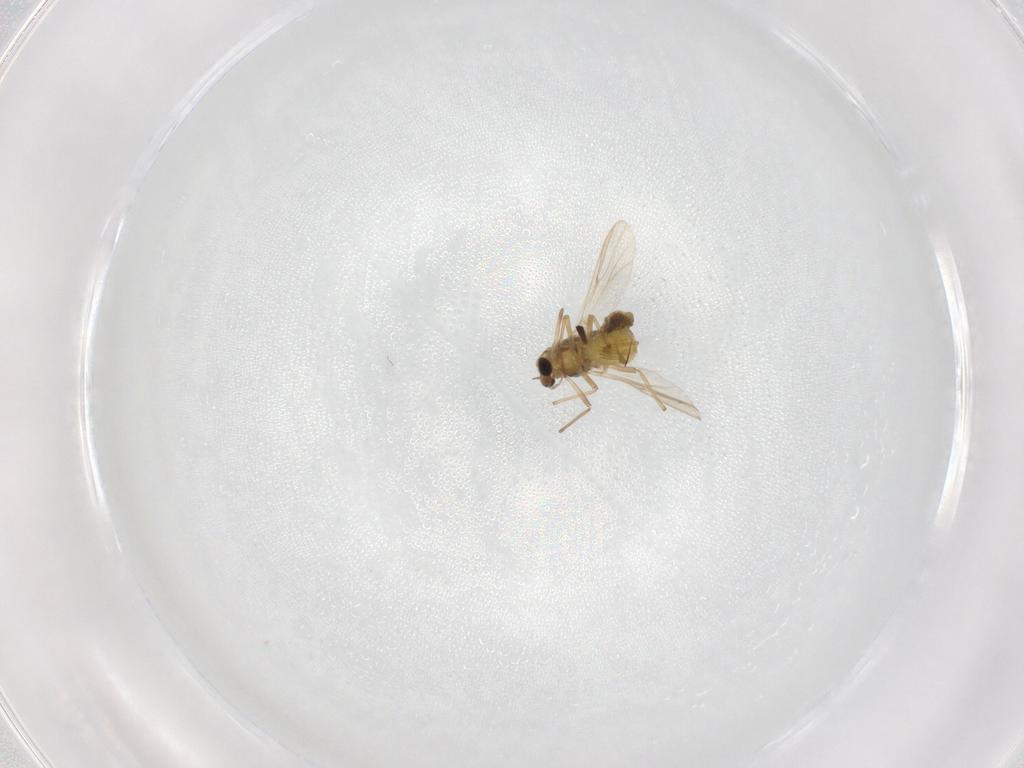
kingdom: Animalia
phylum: Arthropoda
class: Insecta
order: Diptera
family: Chironomidae
